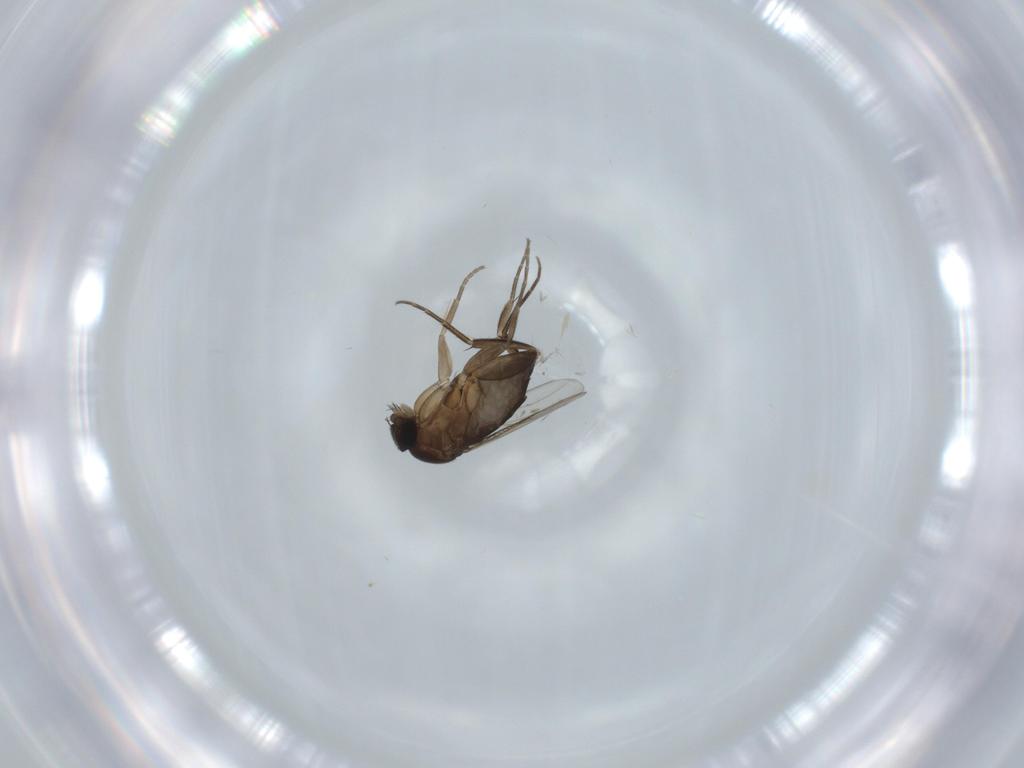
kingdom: Animalia
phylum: Arthropoda
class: Insecta
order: Diptera
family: Phoridae
